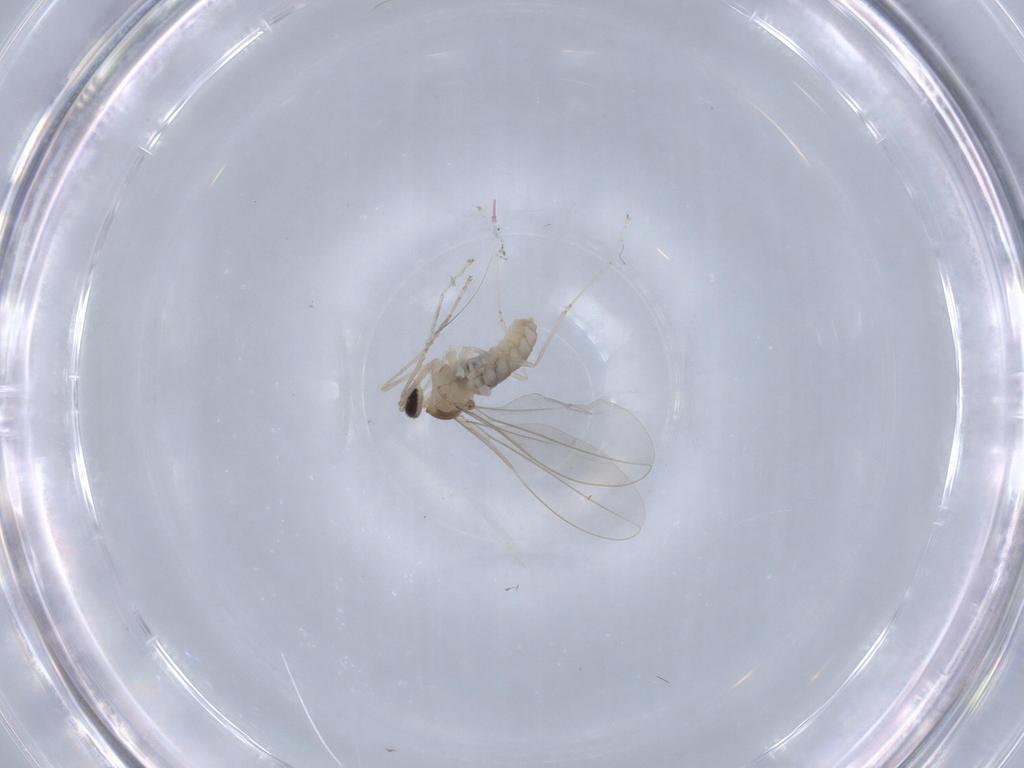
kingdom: Animalia
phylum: Arthropoda
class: Insecta
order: Diptera
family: Cecidomyiidae
